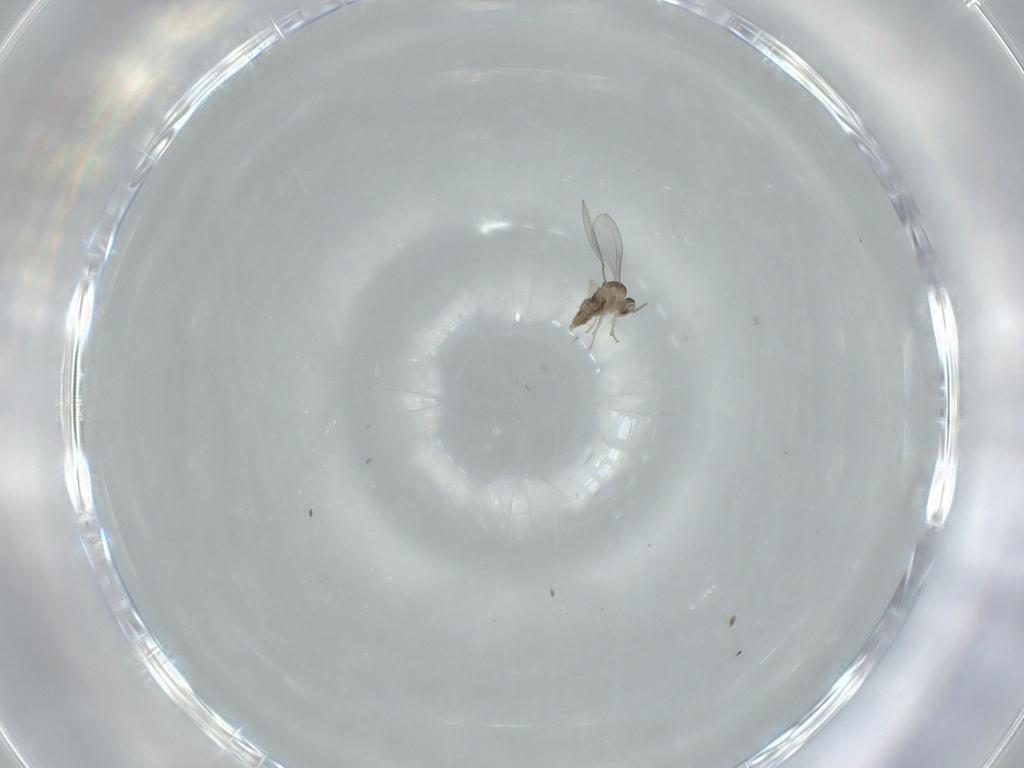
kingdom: Animalia
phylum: Arthropoda
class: Insecta
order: Diptera
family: Cecidomyiidae
